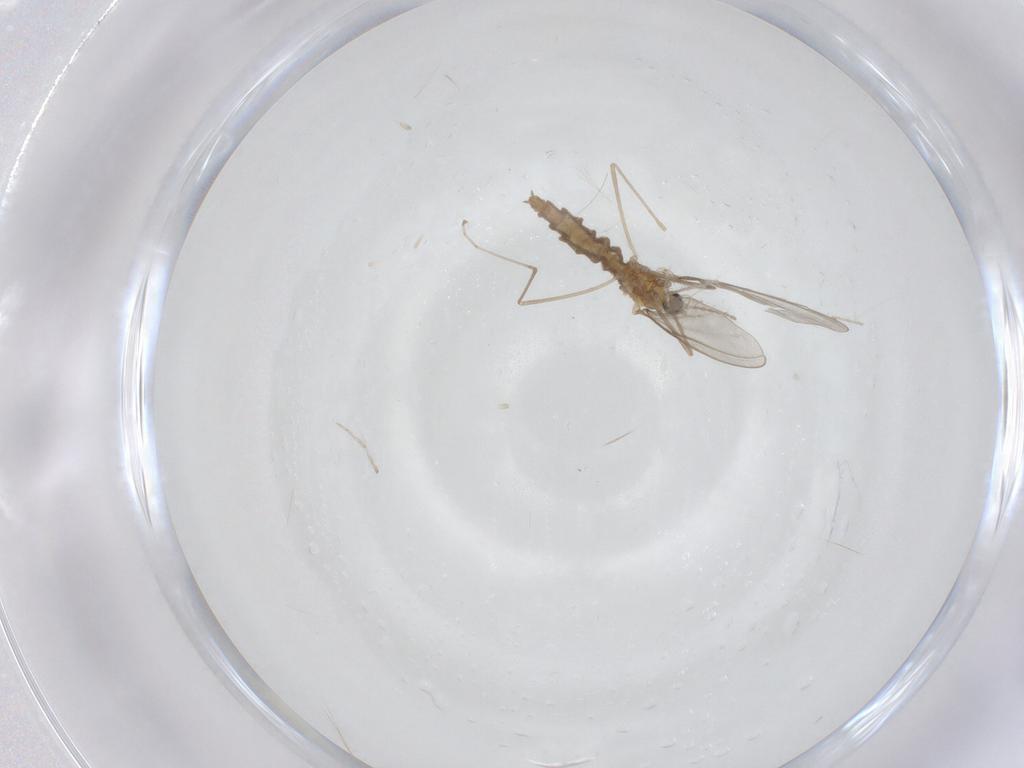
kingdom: Animalia
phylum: Arthropoda
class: Insecta
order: Diptera
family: Cecidomyiidae
